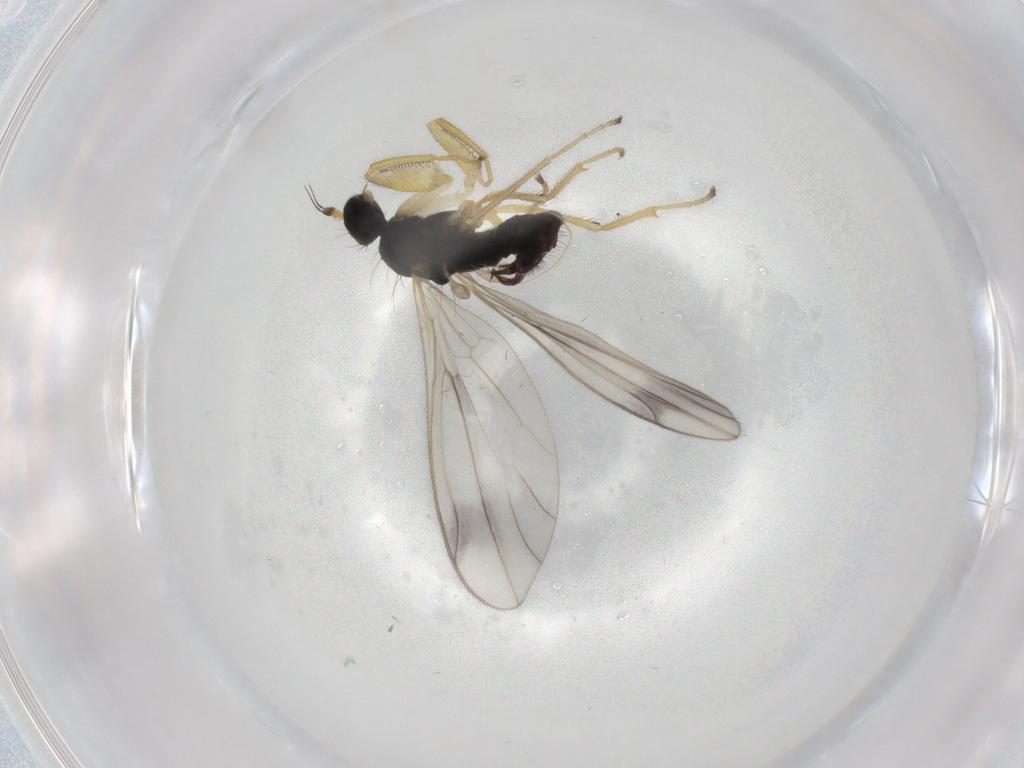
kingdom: Animalia
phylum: Arthropoda
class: Insecta
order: Diptera
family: Empididae
